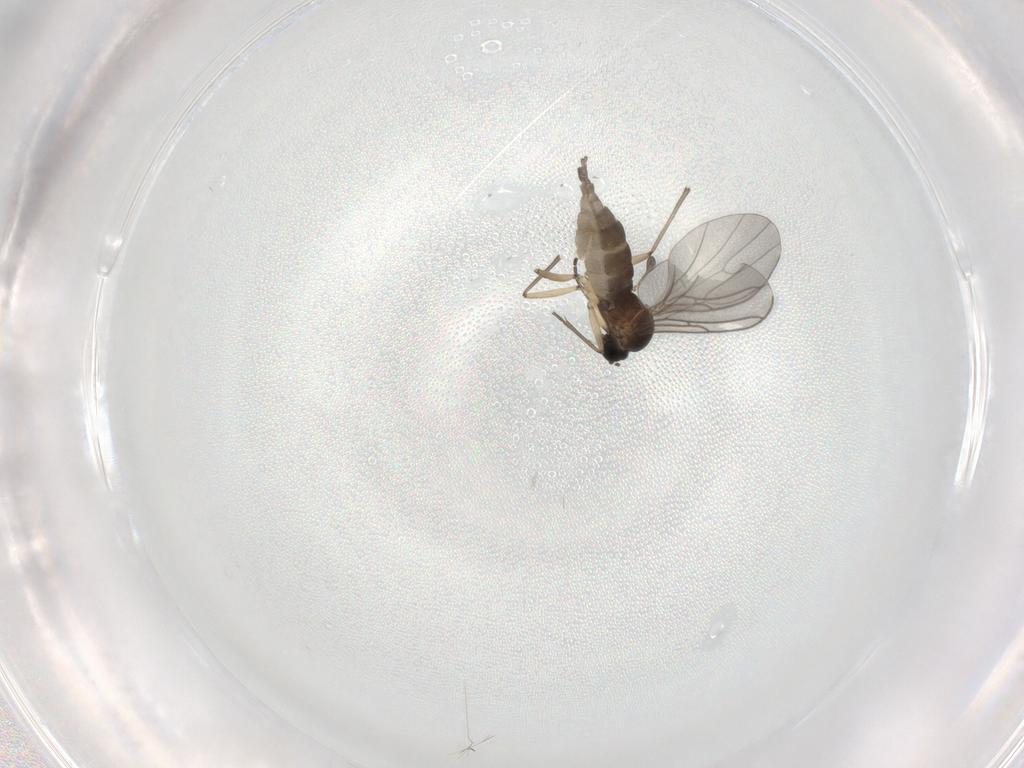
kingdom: Animalia
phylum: Arthropoda
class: Insecta
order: Diptera
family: Sciaridae
